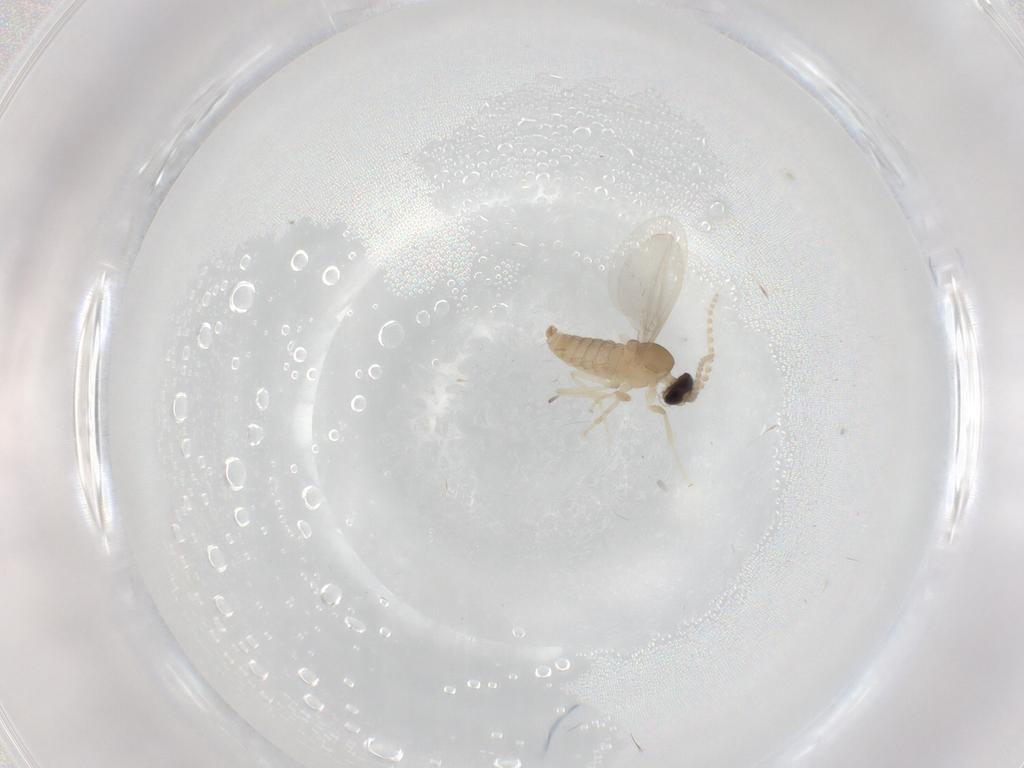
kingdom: Animalia
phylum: Arthropoda
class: Insecta
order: Diptera
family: Cecidomyiidae
